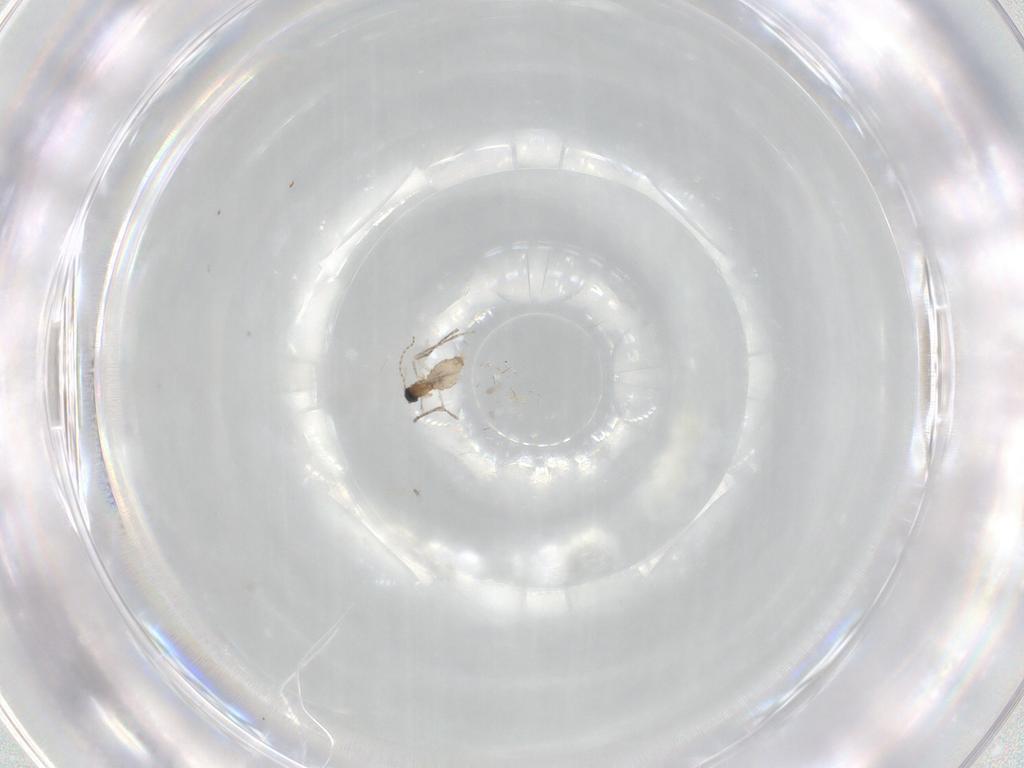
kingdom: Animalia
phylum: Arthropoda
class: Insecta
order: Diptera
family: Cecidomyiidae
